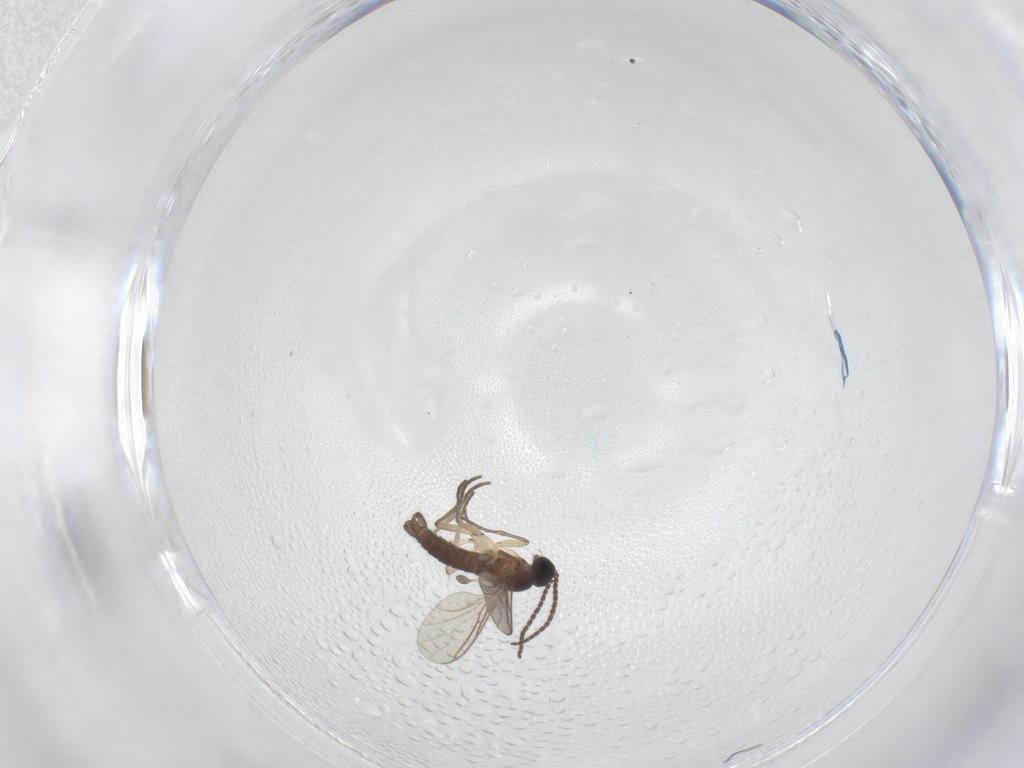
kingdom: Animalia
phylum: Arthropoda
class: Insecta
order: Diptera
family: Sciaridae
